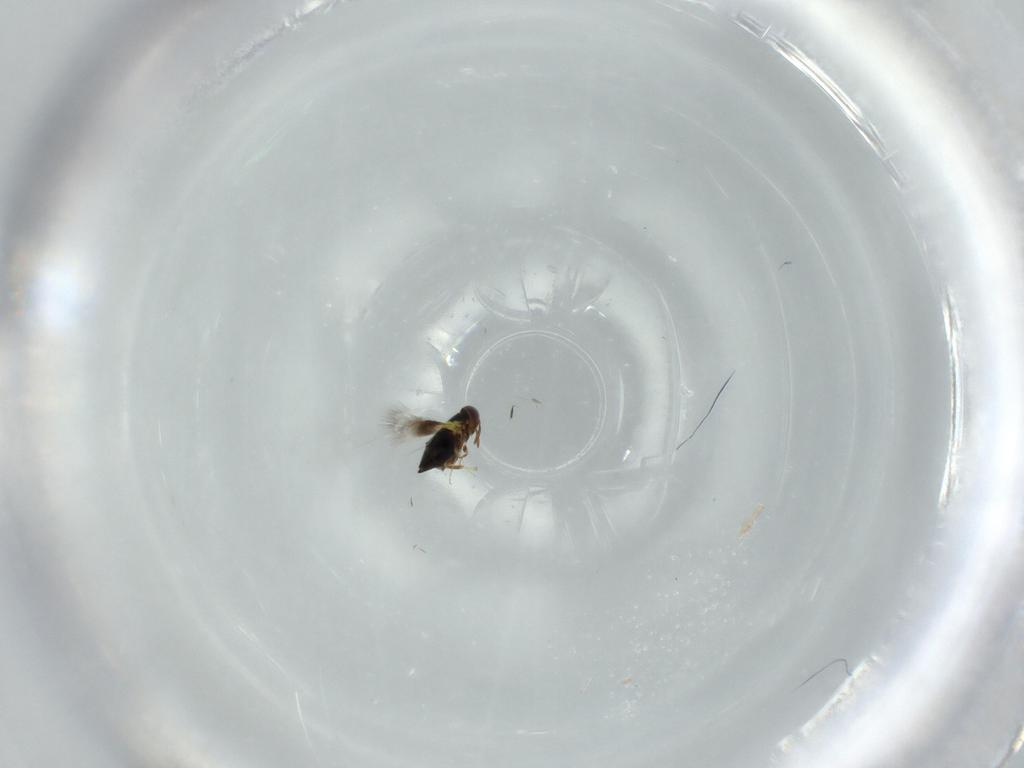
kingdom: Animalia
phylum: Arthropoda
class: Insecta
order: Hymenoptera
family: Signiphoridae
